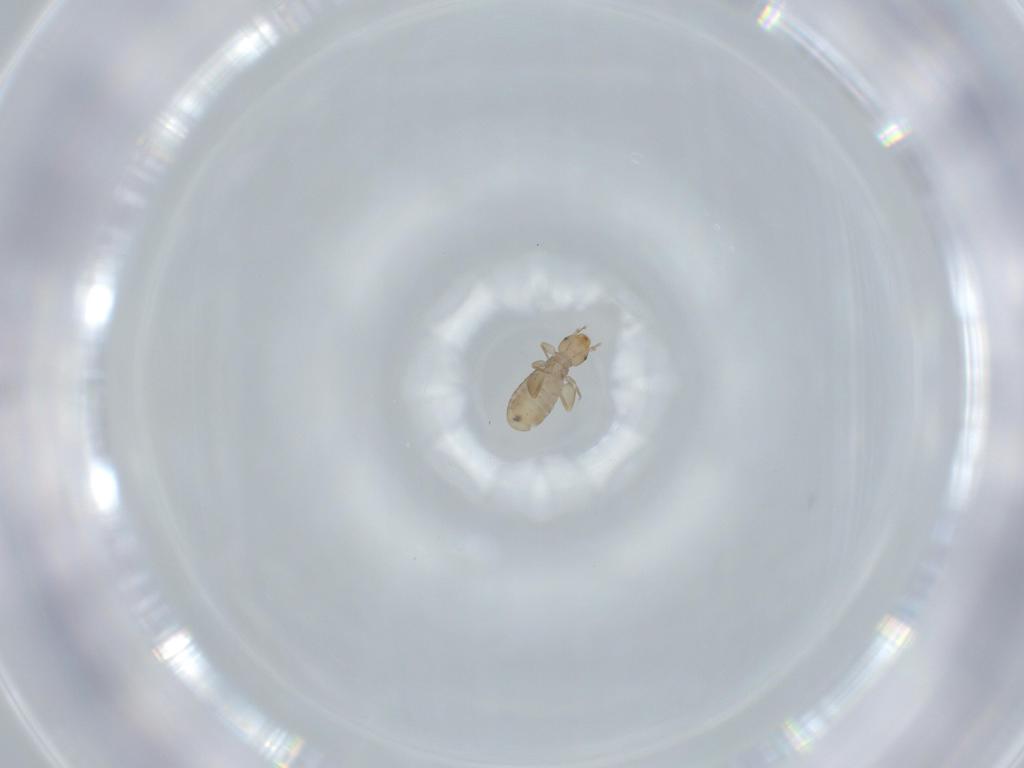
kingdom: Animalia
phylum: Arthropoda
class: Insecta
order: Psocodea
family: Liposcelididae
